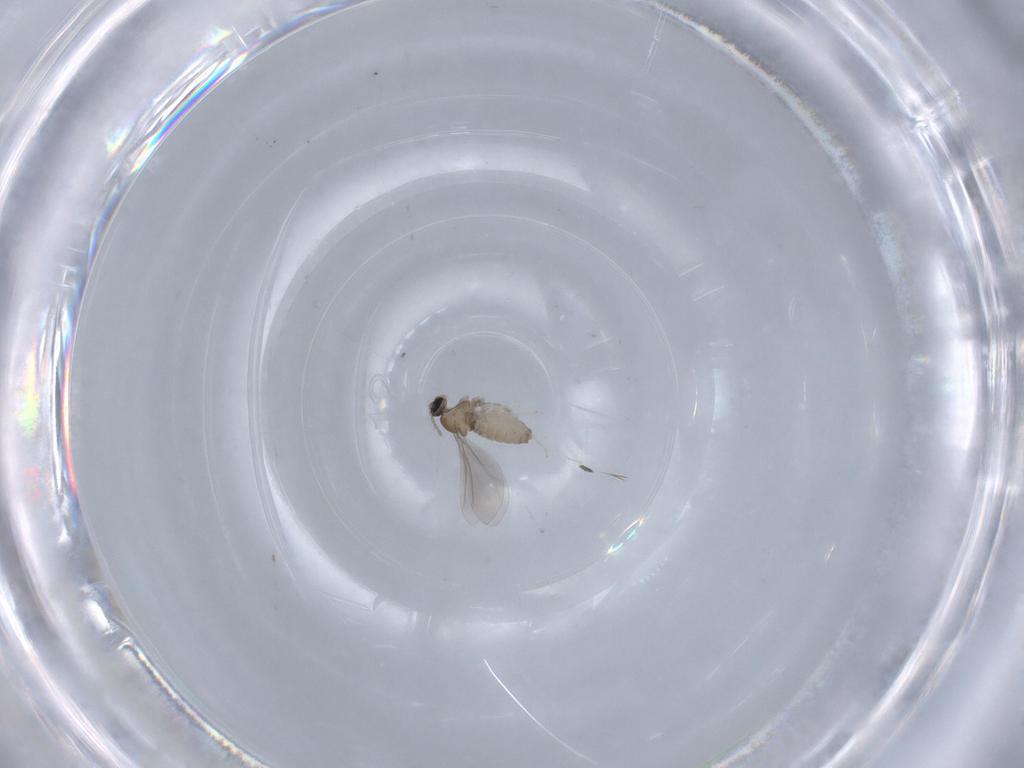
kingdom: Animalia
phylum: Arthropoda
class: Insecta
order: Diptera
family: Cecidomyiidae
